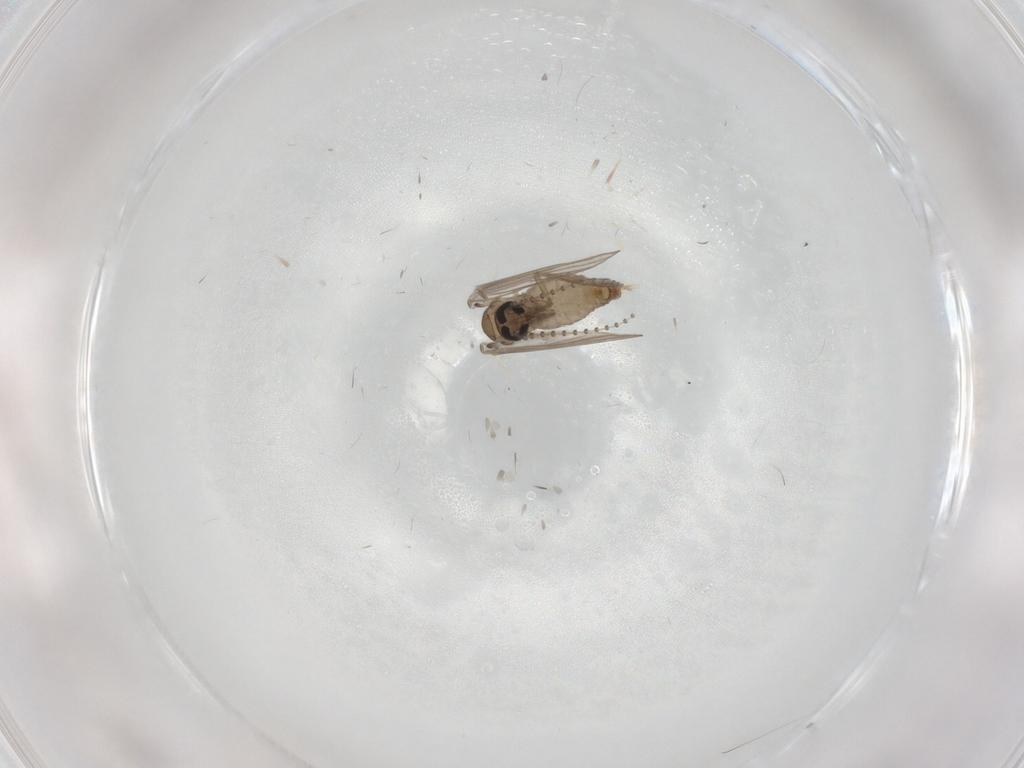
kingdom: Animalia
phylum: Arthropoda
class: Insecta
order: Diptera
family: Psychodidae
